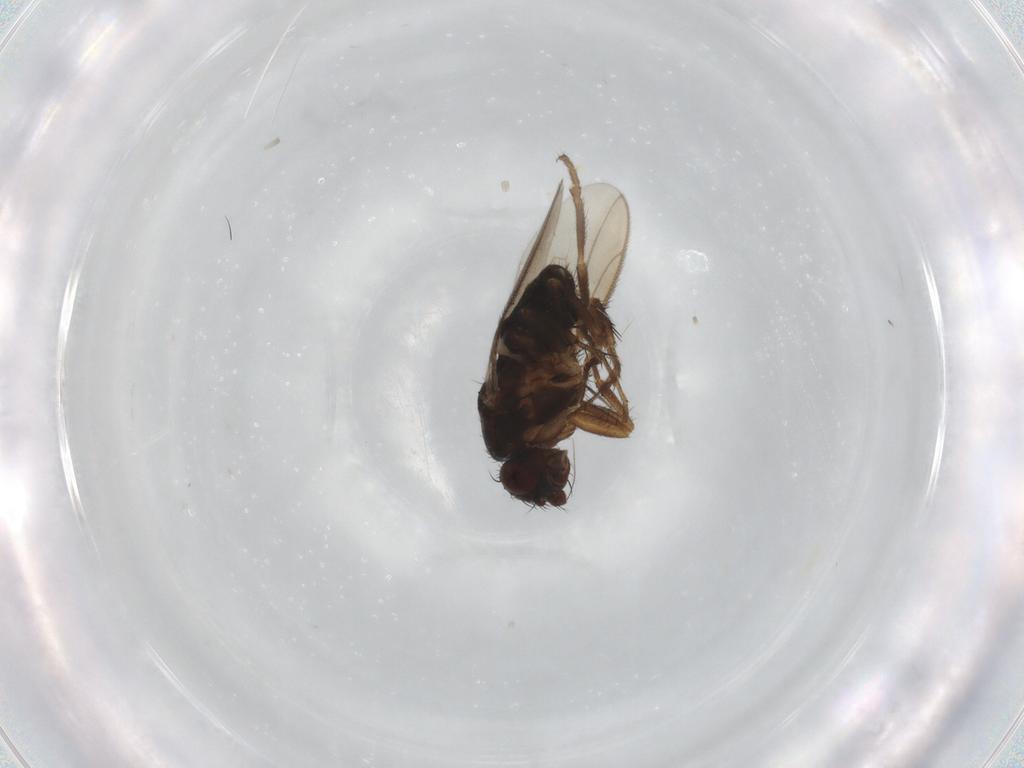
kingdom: Animalia
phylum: Arthropoda
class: Insecta
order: Diptera
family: Sphaeroceridae
